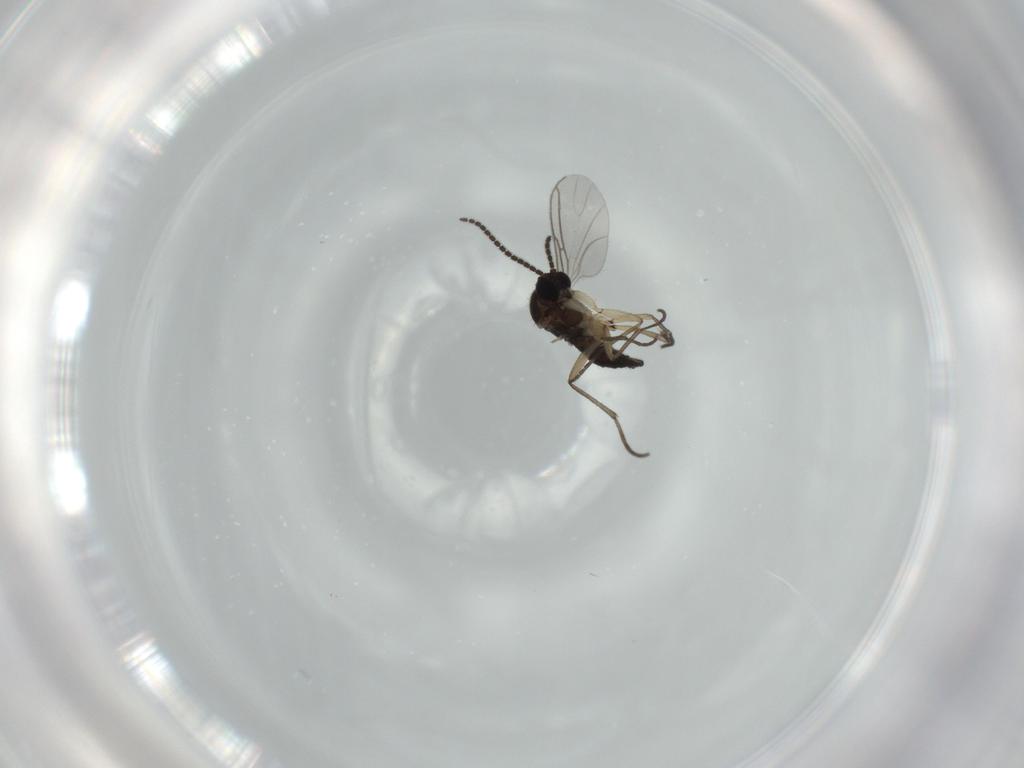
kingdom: Animalia
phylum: Arthropoda
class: Insecta
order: Diptera
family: Sciaridae
